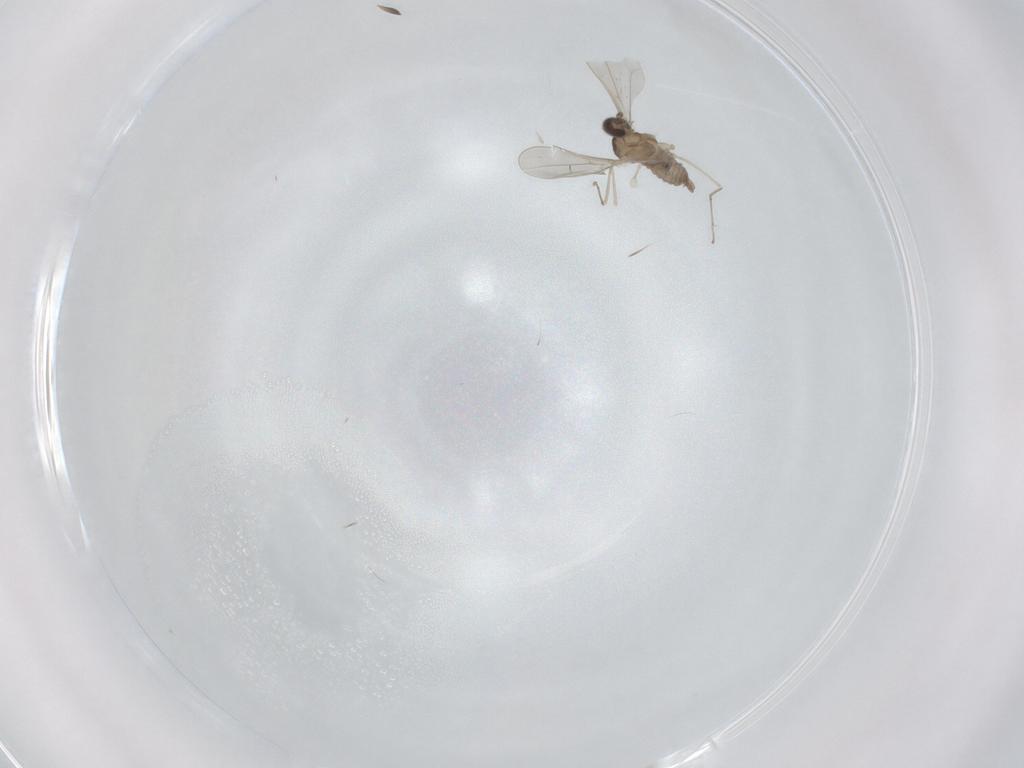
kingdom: Animalia
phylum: Arthropoda
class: Insecta
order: Diptera
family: Cecidomyiidae
